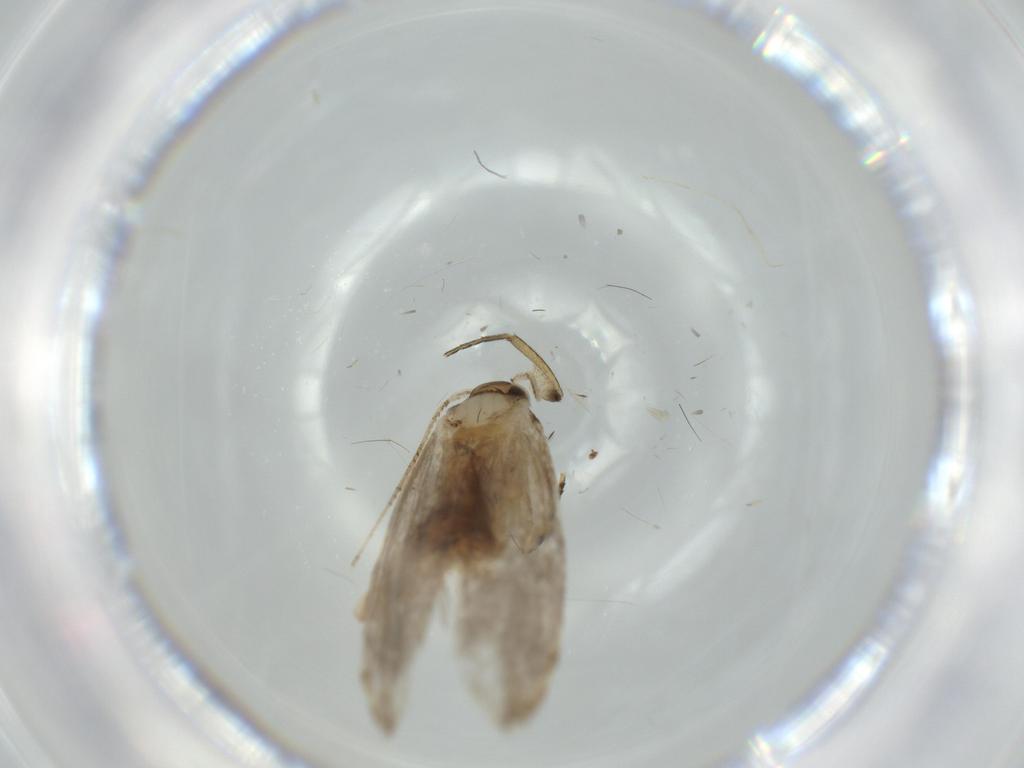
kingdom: Animalia
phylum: Arthropoda
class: Insecta
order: Lepidoptera
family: Tineidae
